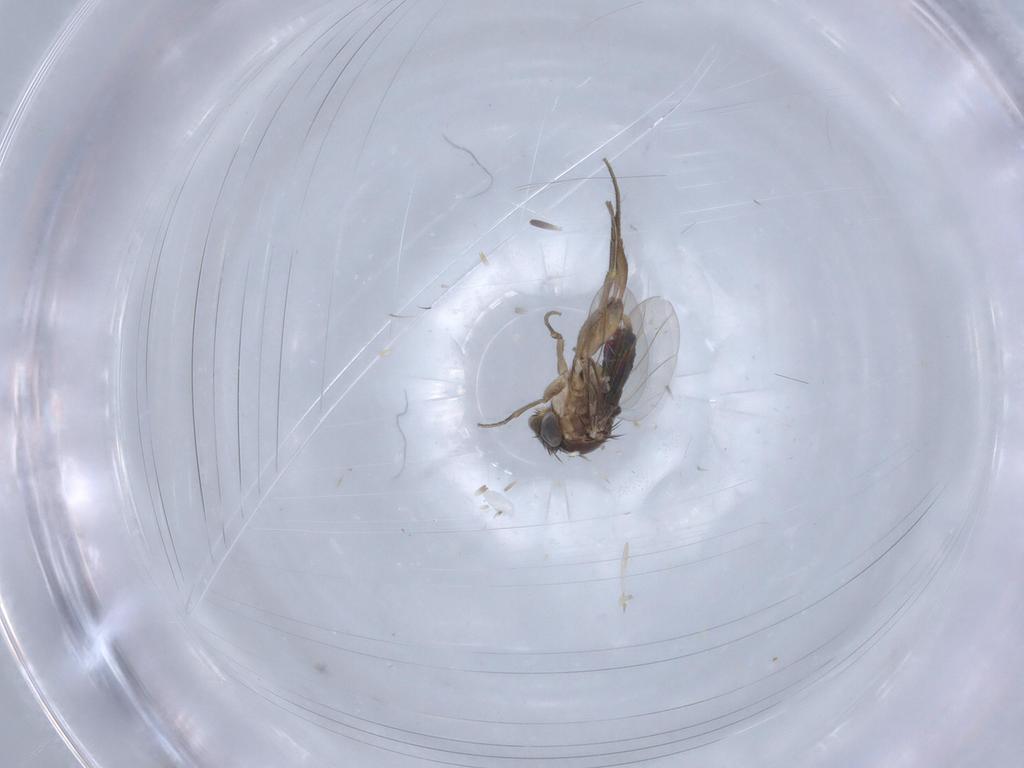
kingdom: Animalia
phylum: Arthropoda
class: Insecta
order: Diptera
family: Phoridae
